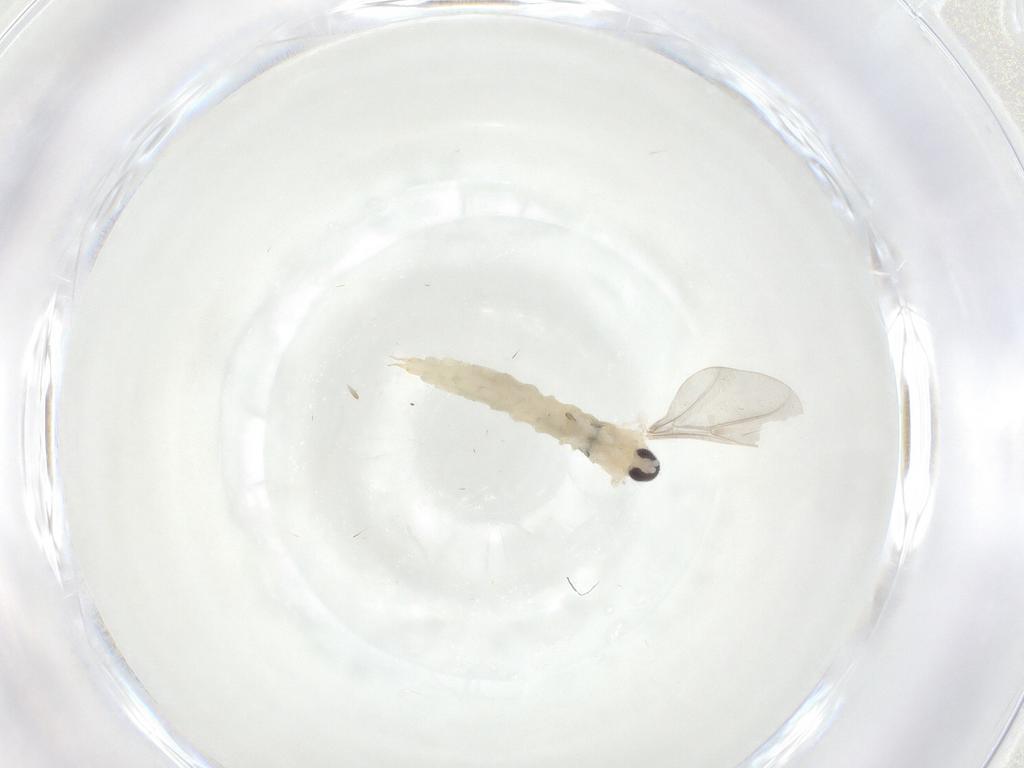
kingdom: Animalia
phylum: Arthropoda
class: Insecta
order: Diptera
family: Cecidomyiidae
